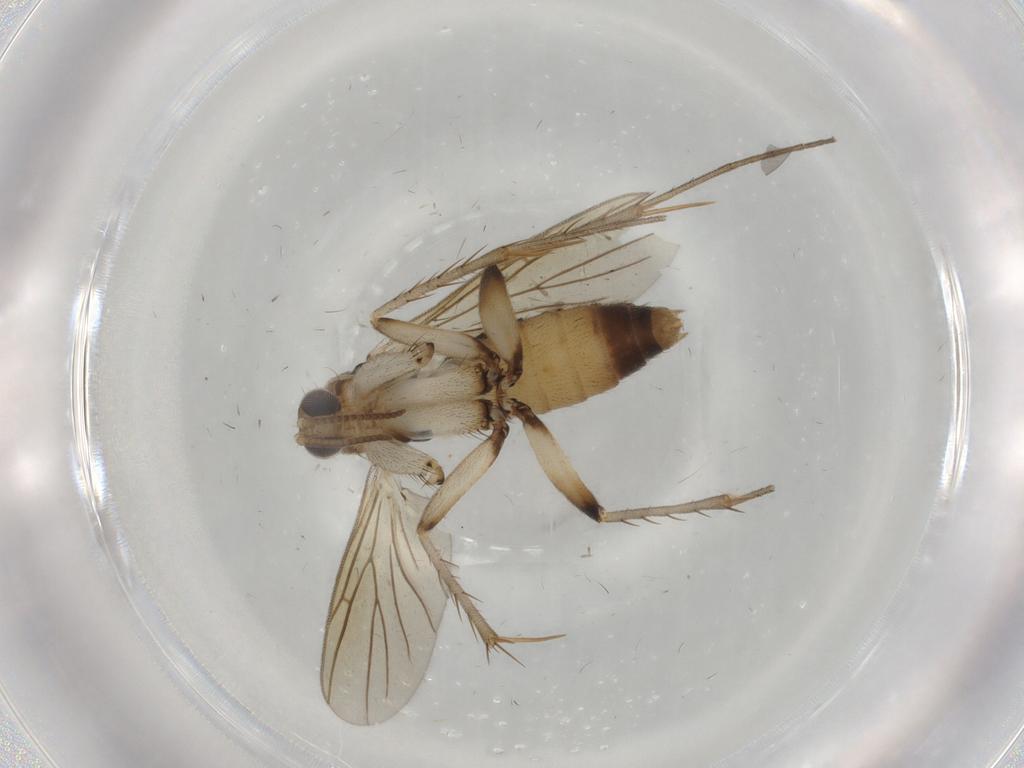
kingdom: Animalia
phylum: Arthropoda
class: Insecta
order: Diptera
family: Mycetophilidae
